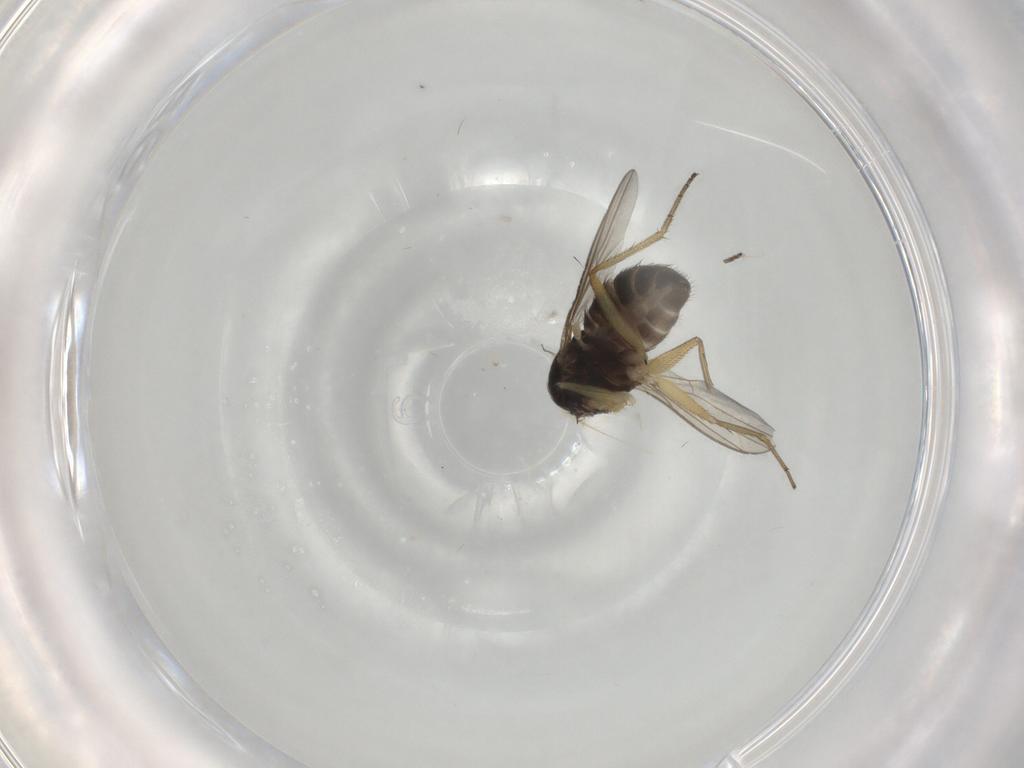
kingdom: Animalia
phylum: Arthropoda
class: Insecta
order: Diptera
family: Dolichopodidae
